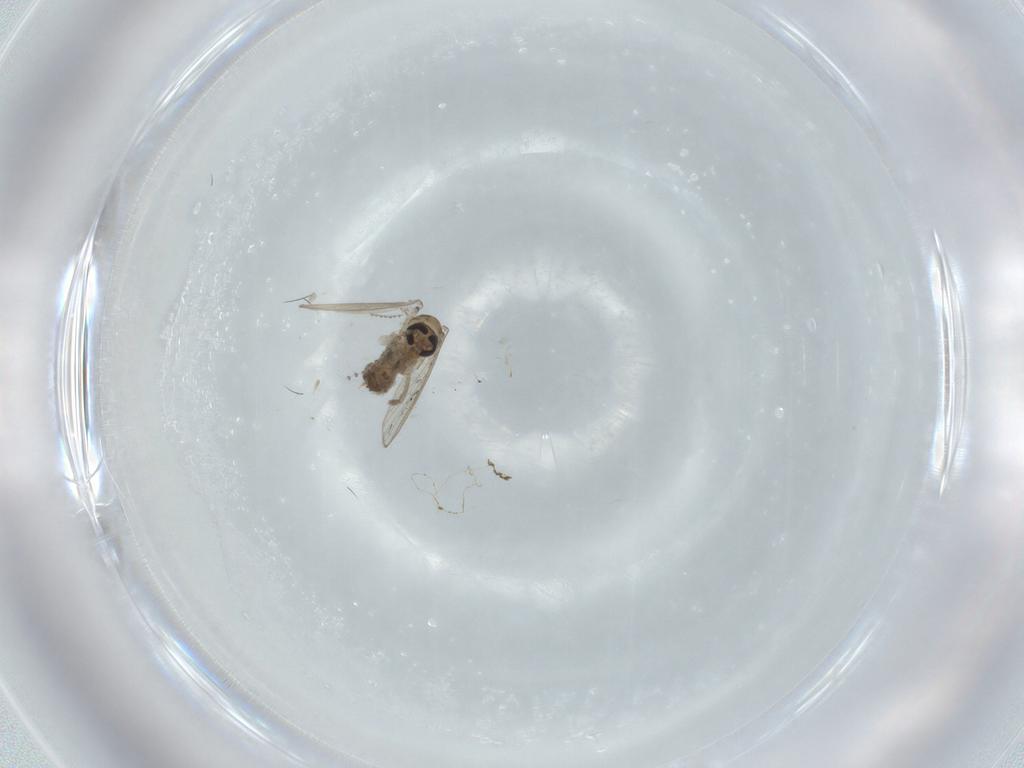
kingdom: Animalia
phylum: Arthropoda
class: Insecta
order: Diptera
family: Psychodidae
